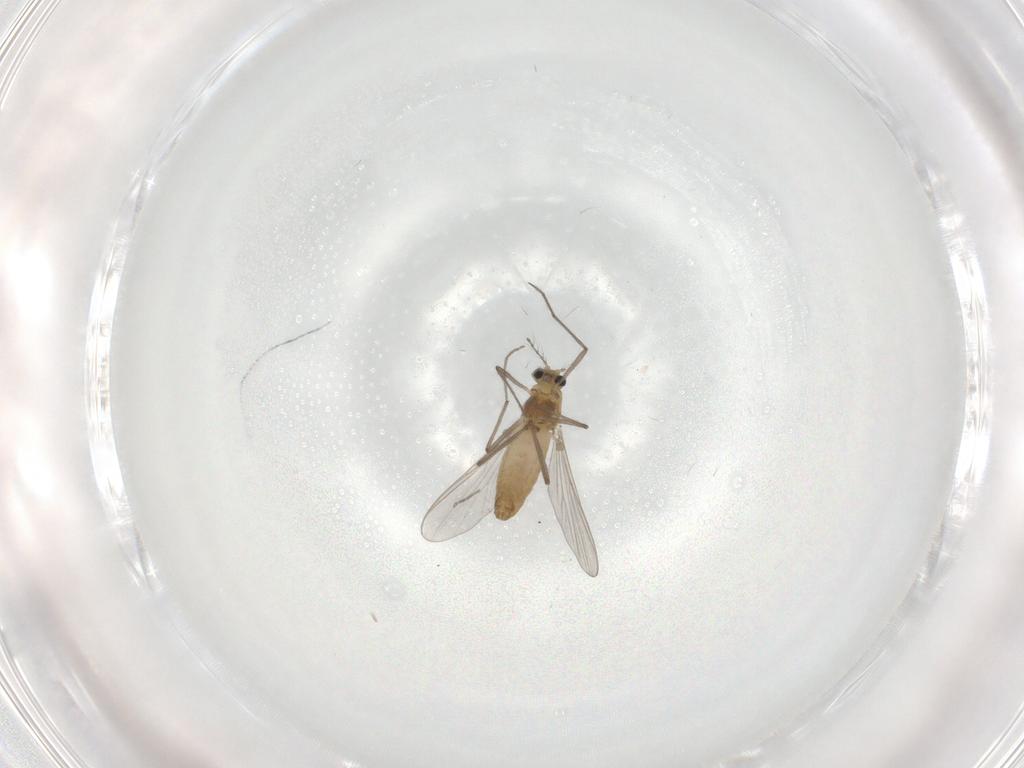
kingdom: Animalia
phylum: Arthropoda
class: Insecta
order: Diptera
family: Chironomidae
